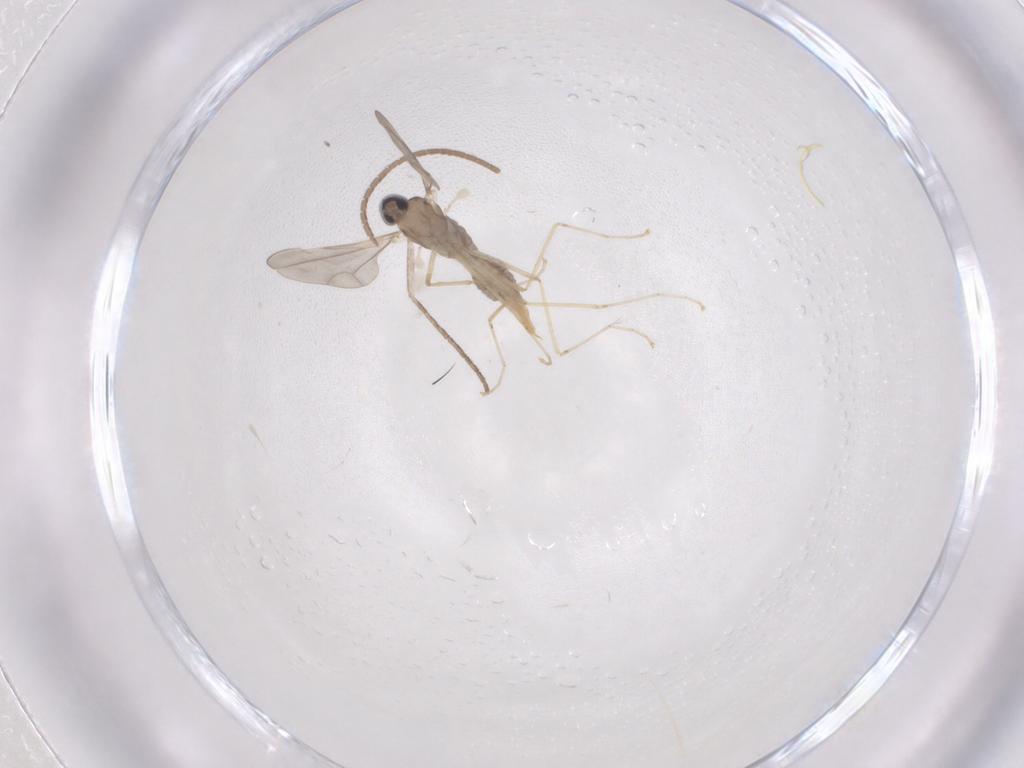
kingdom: Animalia
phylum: Arthropoda
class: Insecta
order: Diptera
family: Cecidomyiidae
